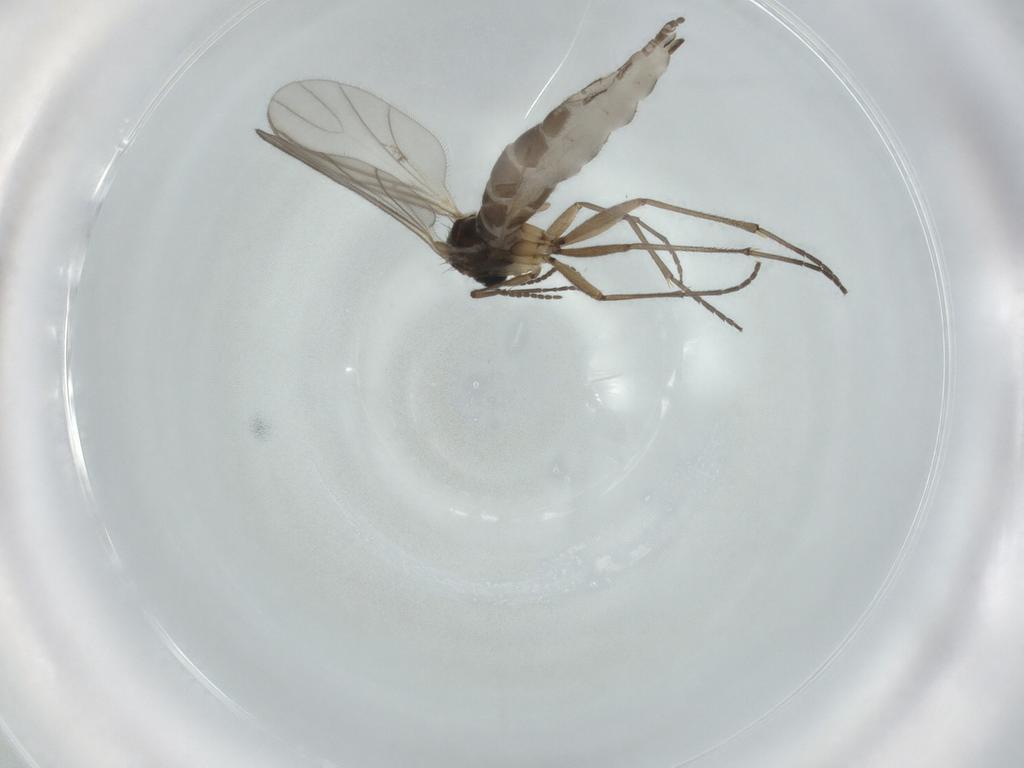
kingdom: Animalia
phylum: Arthropoda
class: Insecta
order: Diptera
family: Sciaridae
